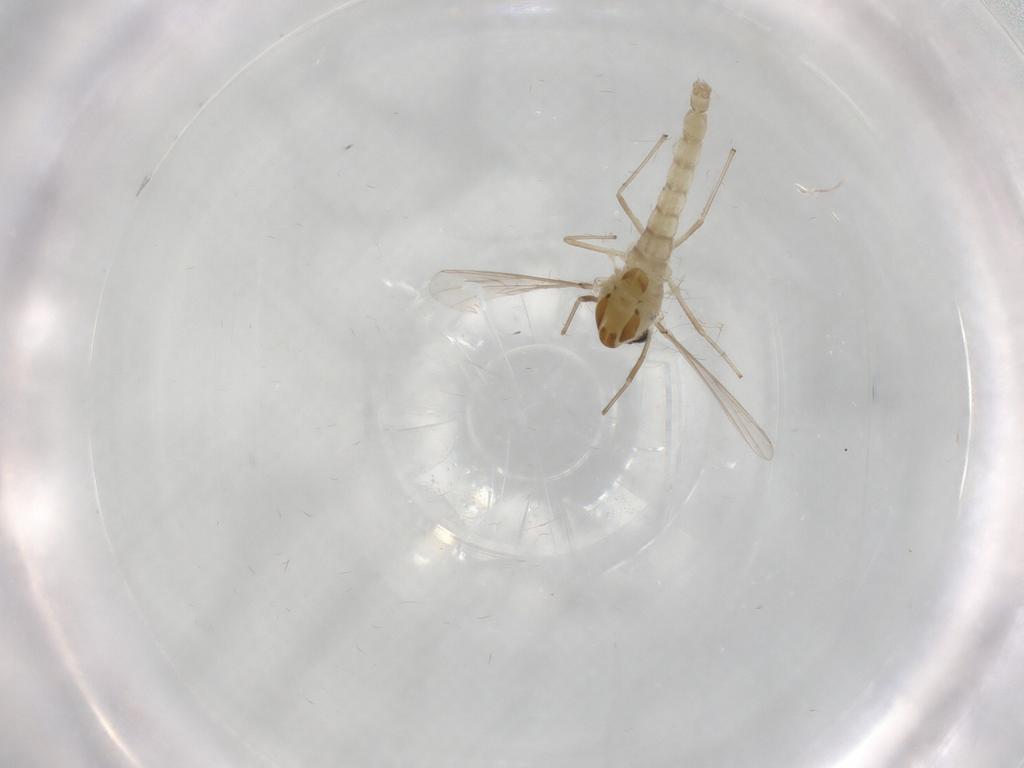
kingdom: Animalia
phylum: Arthropoda
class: Insecta
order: Diptera
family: Chironomidae
